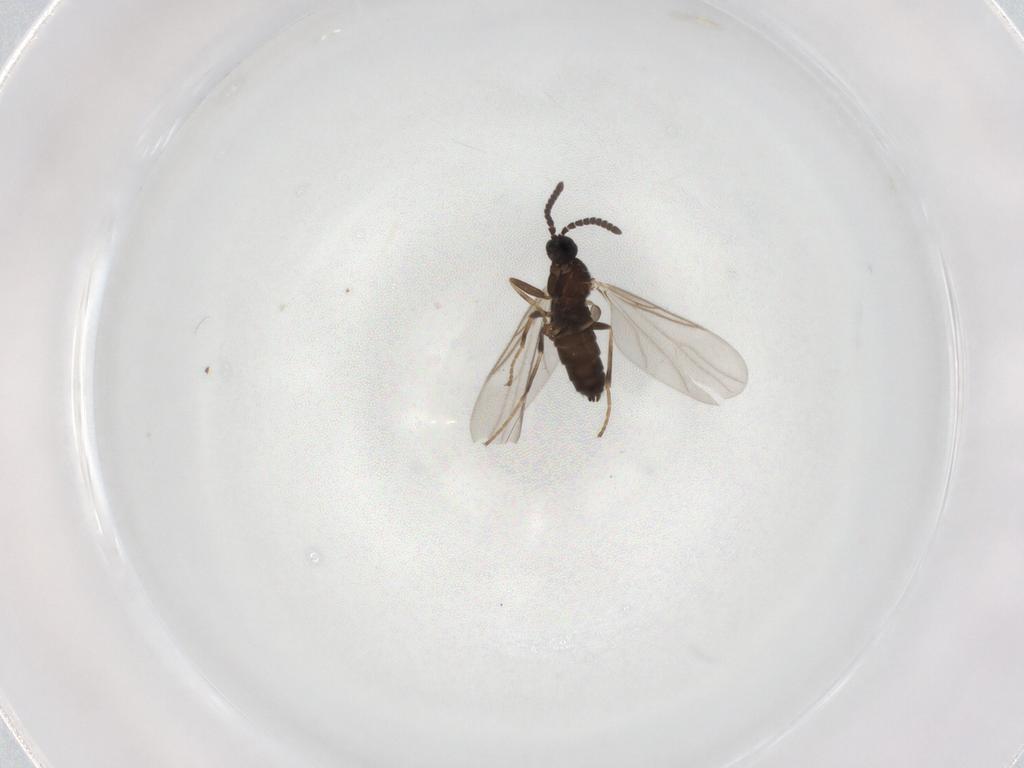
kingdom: Animalia
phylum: Arthropoda
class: Insecta
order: Diptera
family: Scatopsidae
